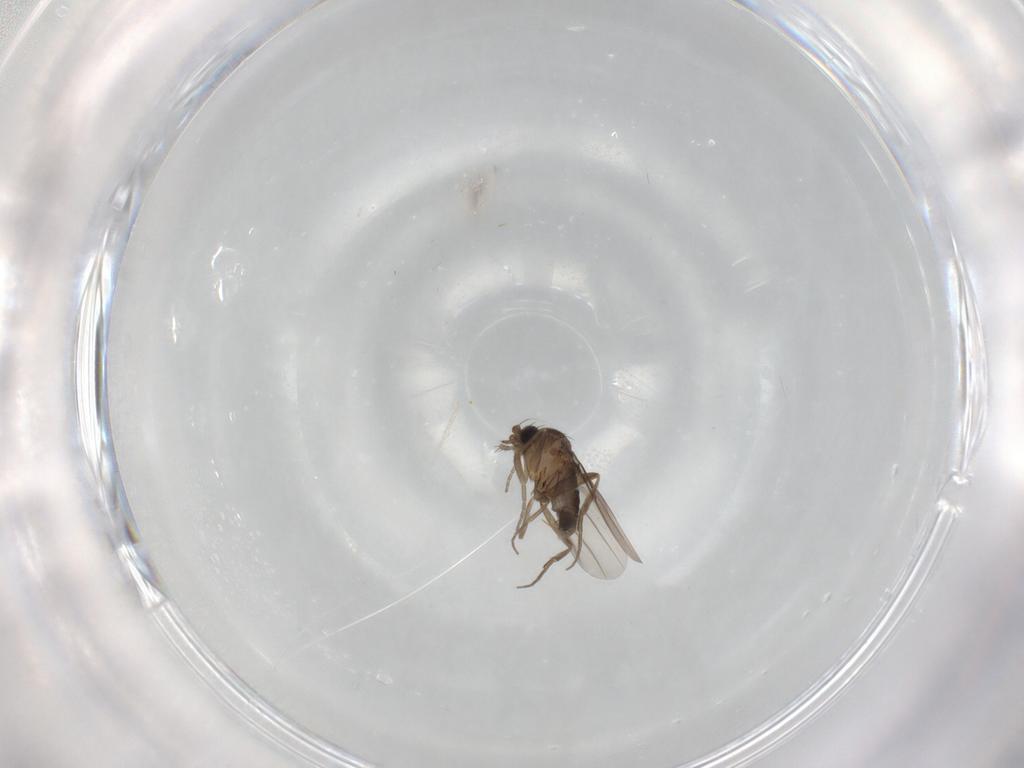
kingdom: Animalia
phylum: Arthropoda
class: Insecta
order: Diptera
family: Phoridae
